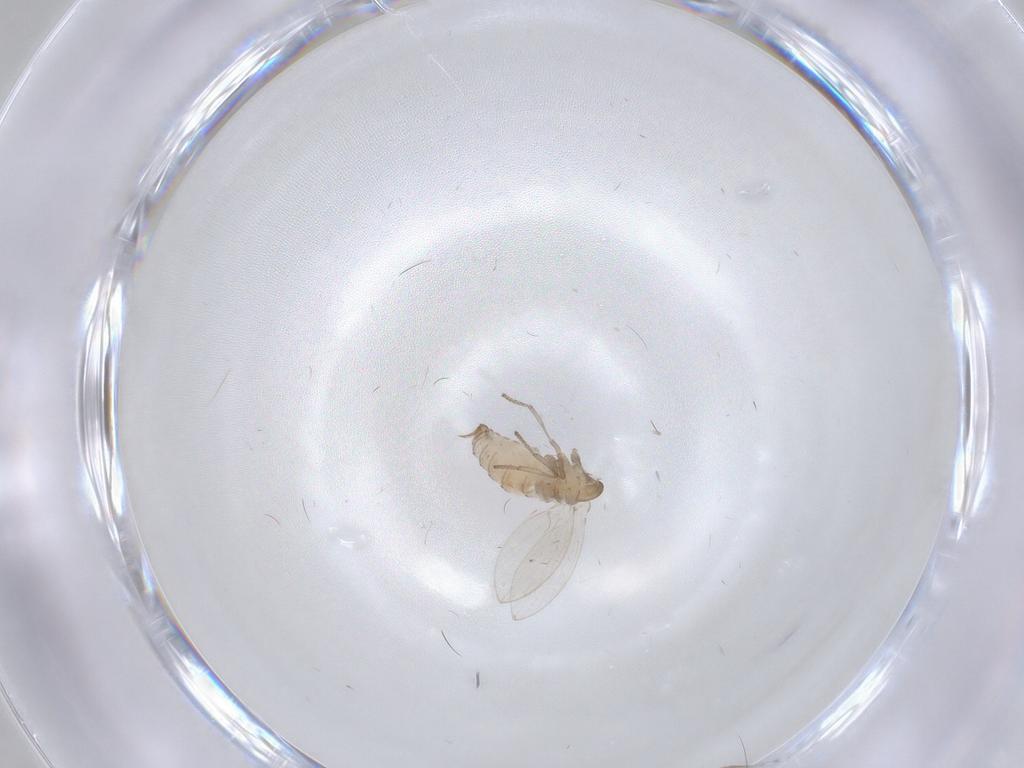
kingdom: Animalia
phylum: Arthropoda
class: Insecta
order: Diptera
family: Psychodidae
